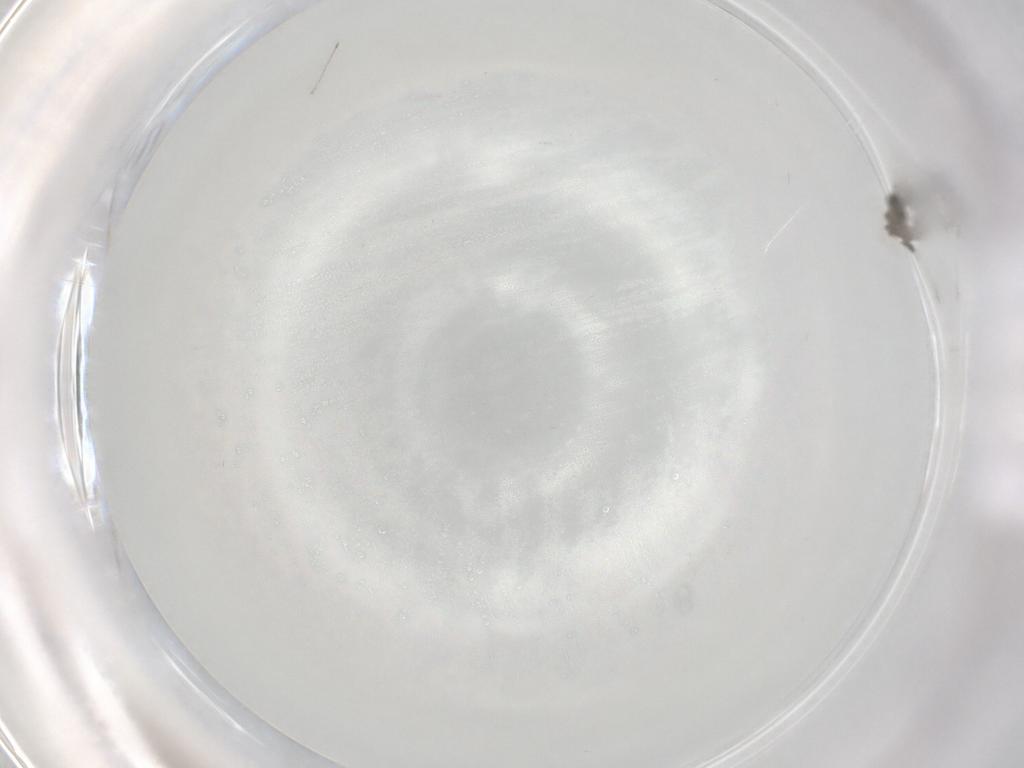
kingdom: Animalia
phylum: Arthropoda
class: Insecta
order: Diptera
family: Cecidomyiidae
